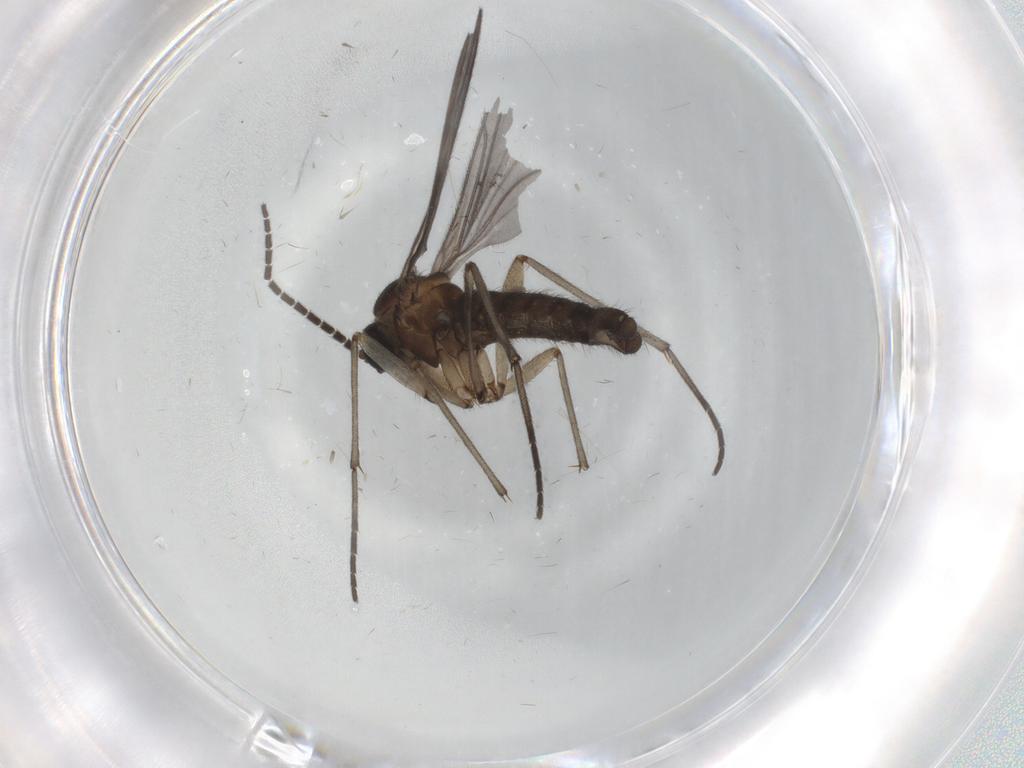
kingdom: Animalia
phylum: Arthropoda
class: Insecta
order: Diptera
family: Sciaridae
